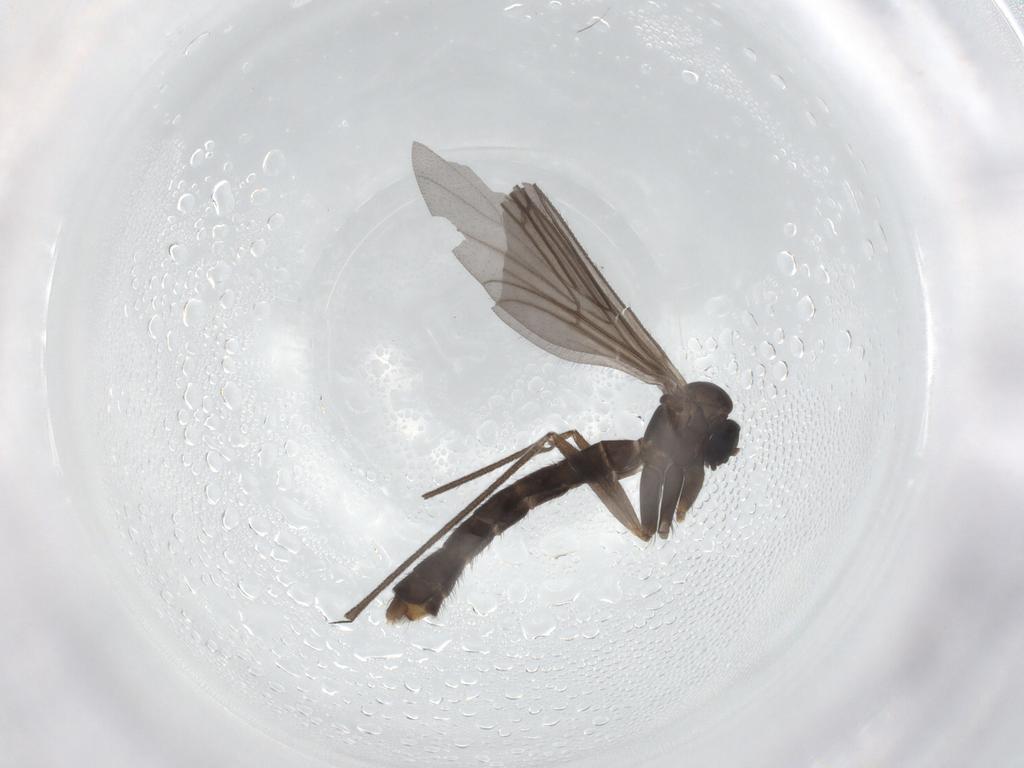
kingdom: Animalia
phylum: Arthropoda
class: Insecta
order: Diptera
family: Keroplatidae
